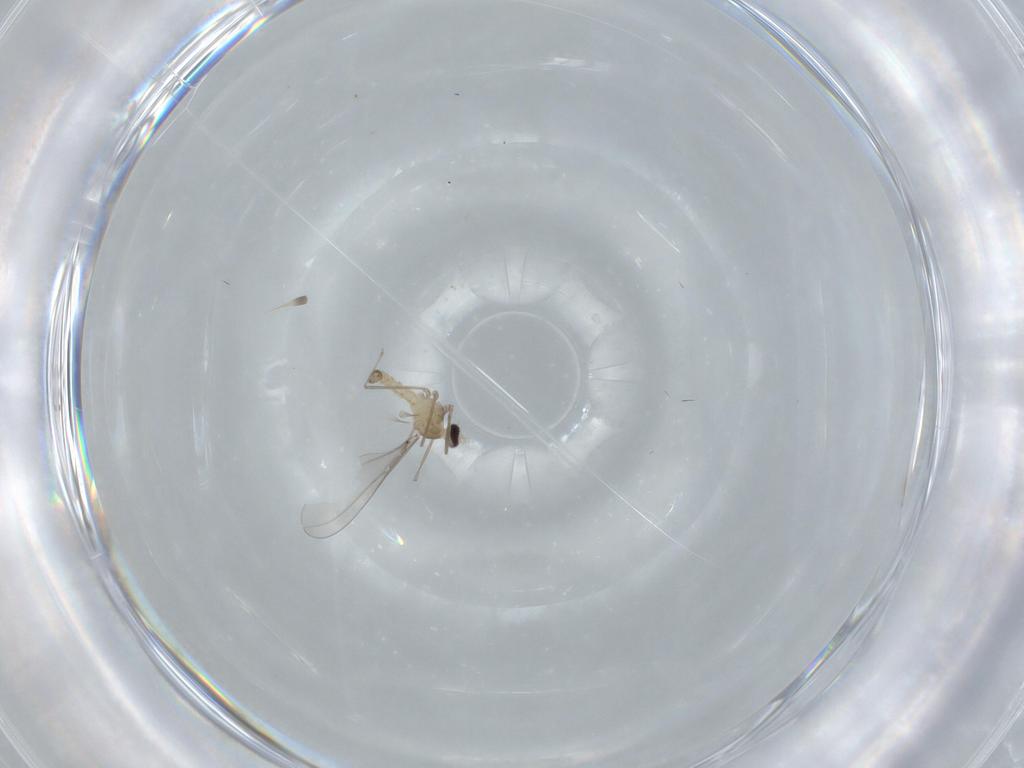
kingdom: Animalia
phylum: Arthropoda
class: Insecta
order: Diptera
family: Cecidomyiidae
